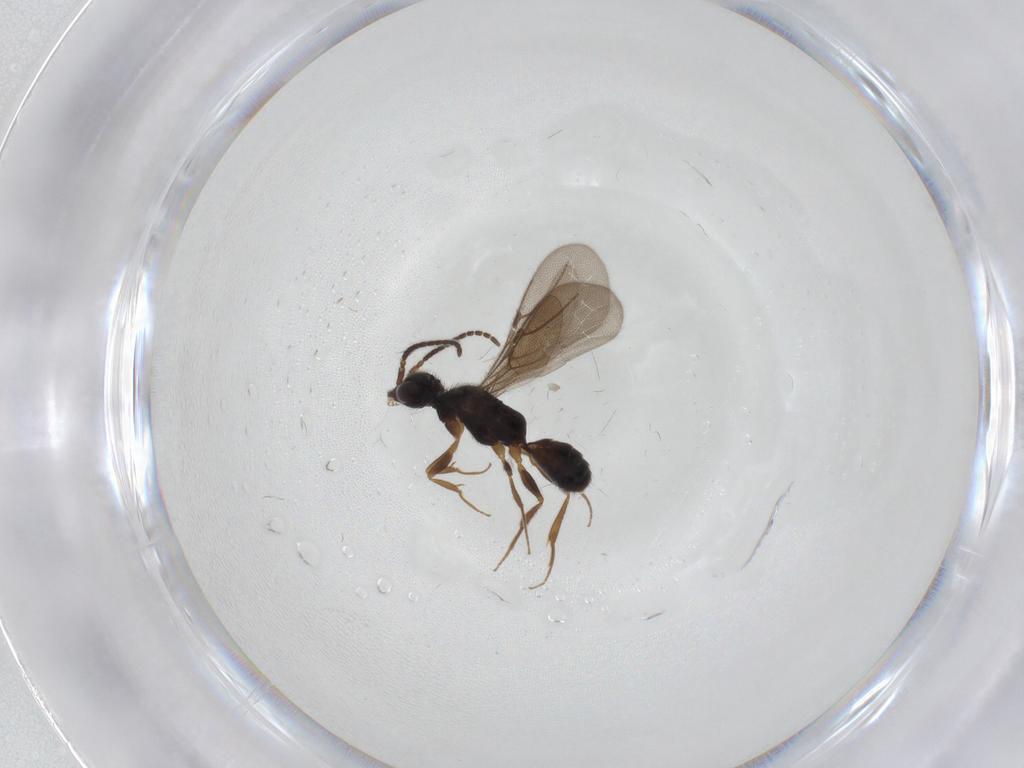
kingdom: Animalia
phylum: Arthropoda
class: Insecta
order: Hymenoptera
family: Bethylidae
